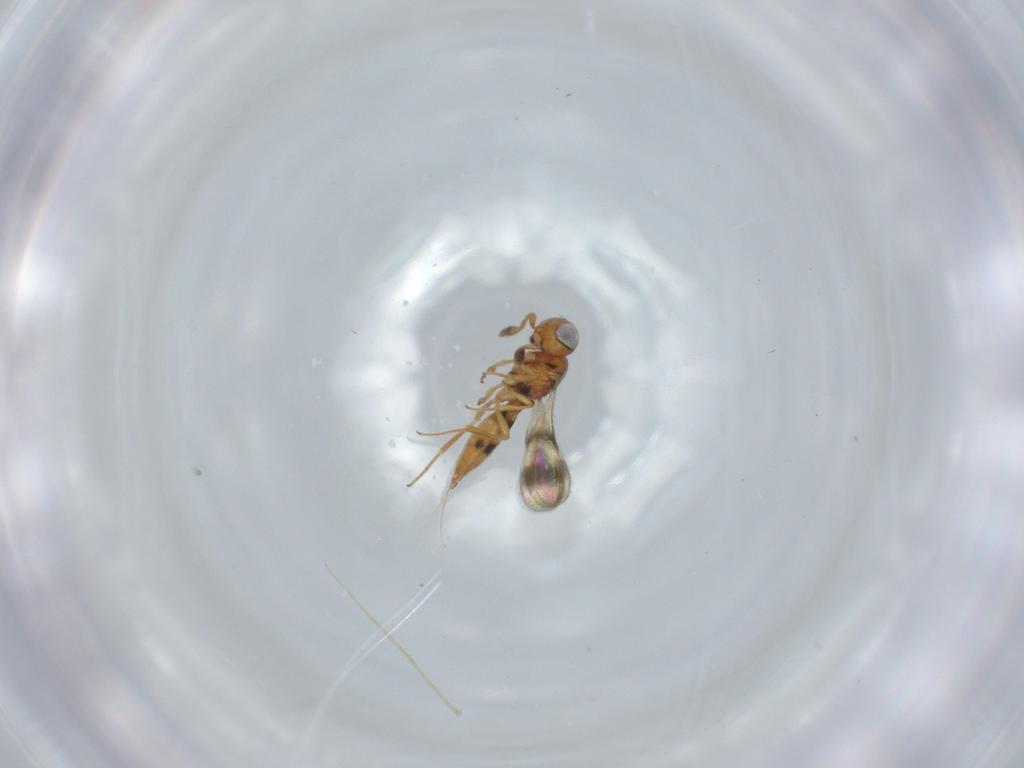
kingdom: Animalia
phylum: Arthropoda
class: Insecta
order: Hymenoptera
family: Scelionidae
